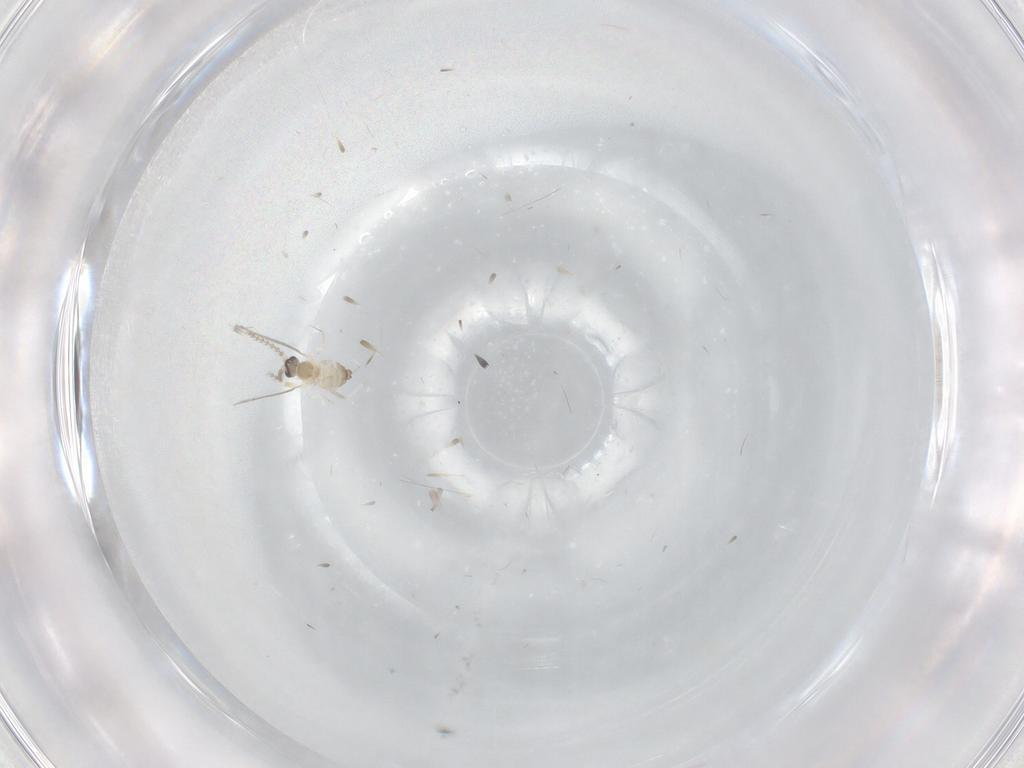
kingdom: Animalia
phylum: Arthropoda
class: Insecta
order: Diptera
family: Cecidomyiidae
